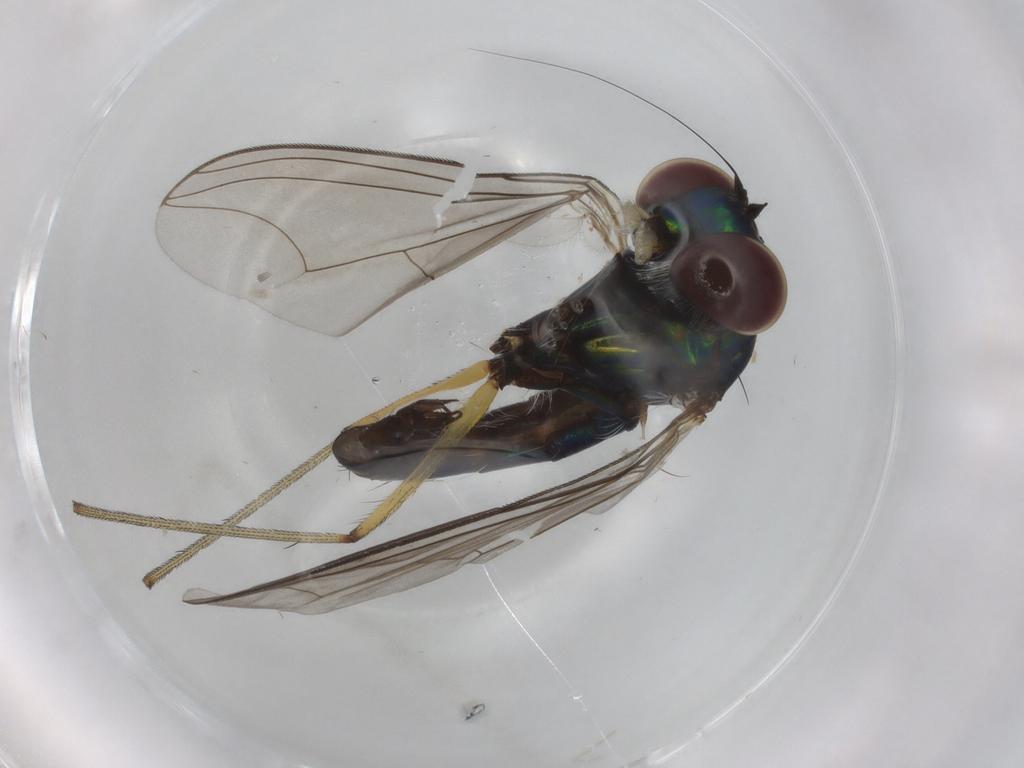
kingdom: Animalia
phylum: Arthropoda
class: Insecta
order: Diptera
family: Dolichopodidae
